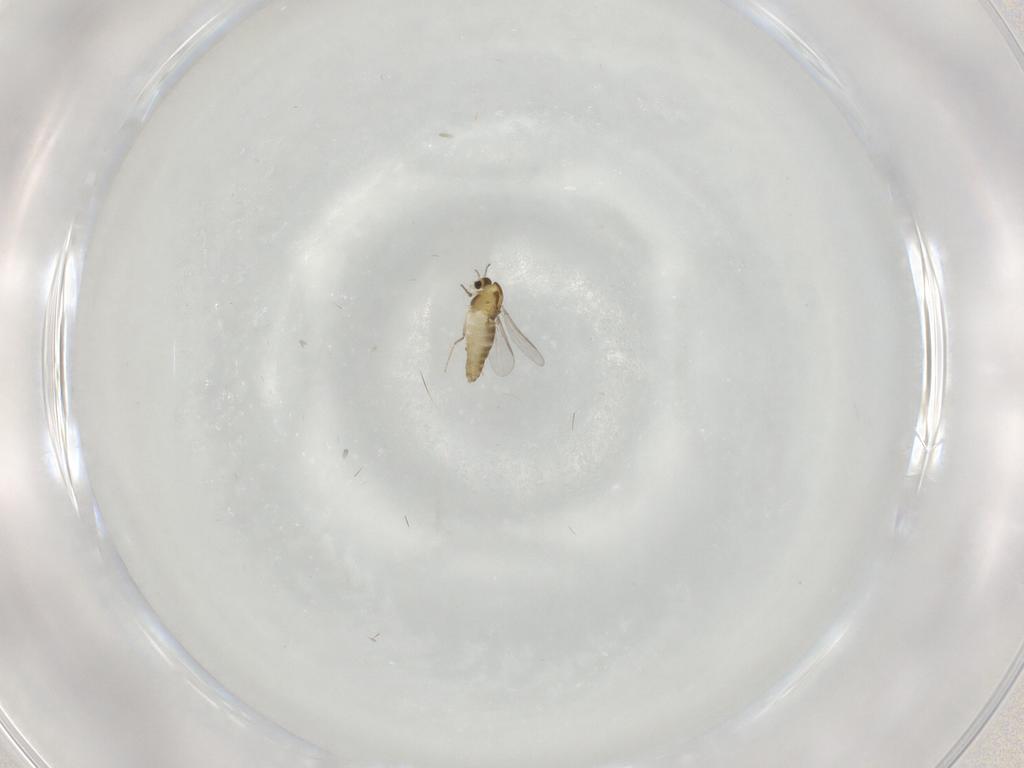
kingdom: Animalia
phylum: Arthropoda
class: Insecta
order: Diptera
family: Chironomidae
